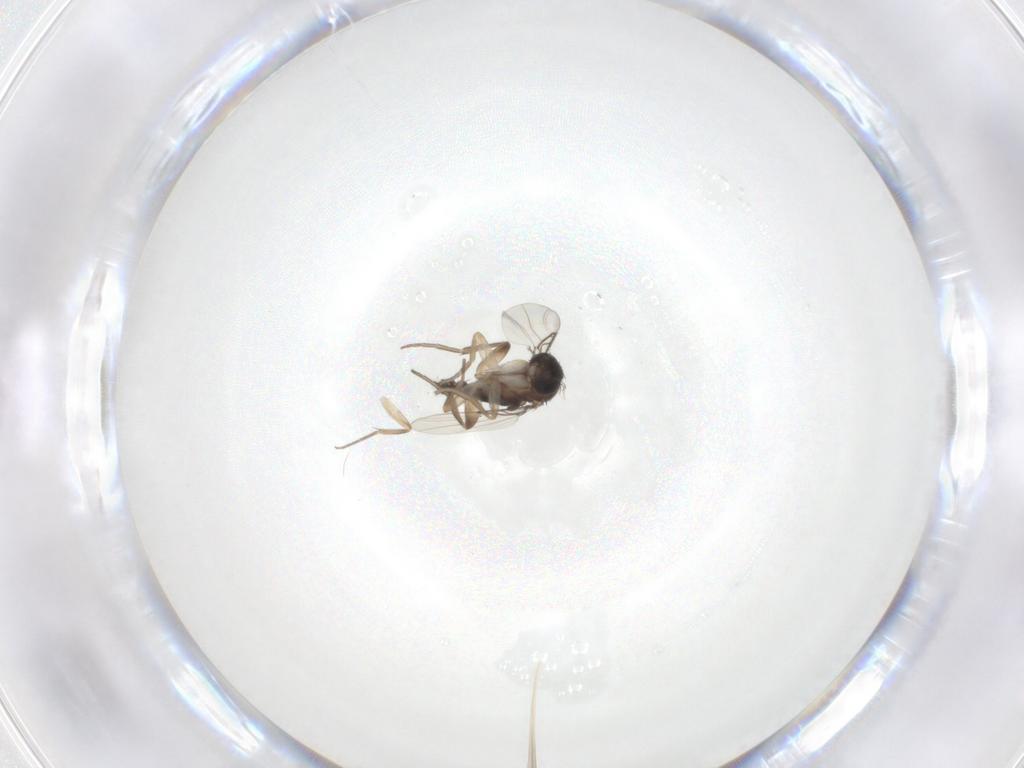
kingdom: Animalia
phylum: Arthropoda
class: Insecta
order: Diptera
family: Phoridae
